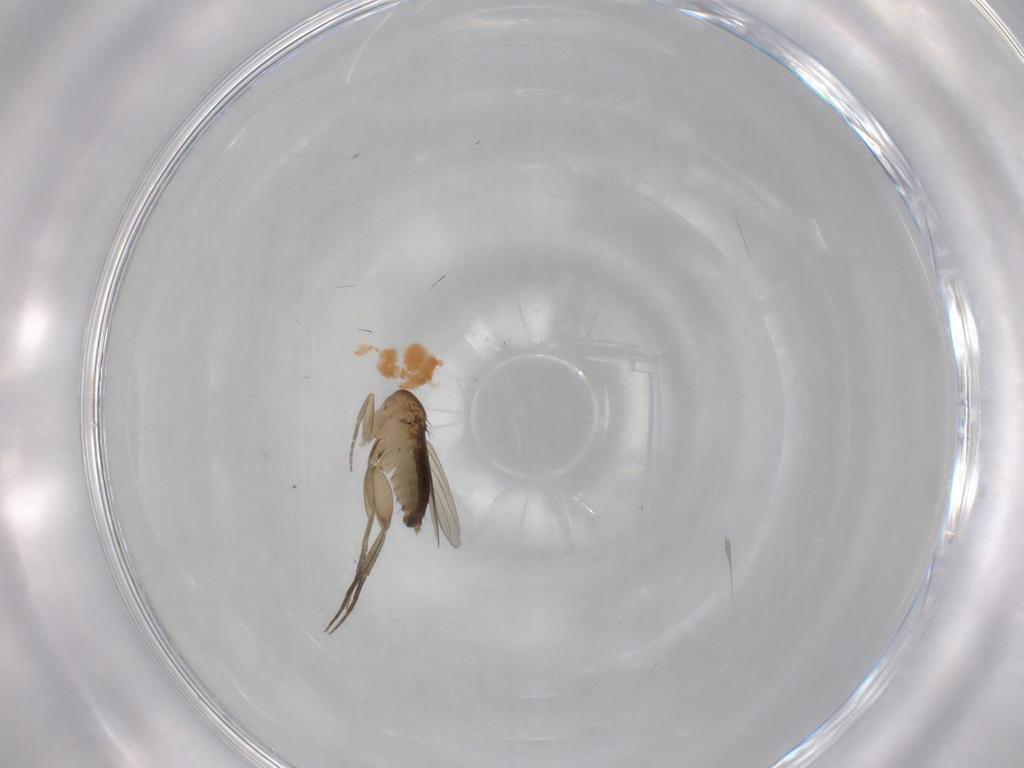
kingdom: Animalia
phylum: Arthropoda
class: Insecta
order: Diptera
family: Phoridae
